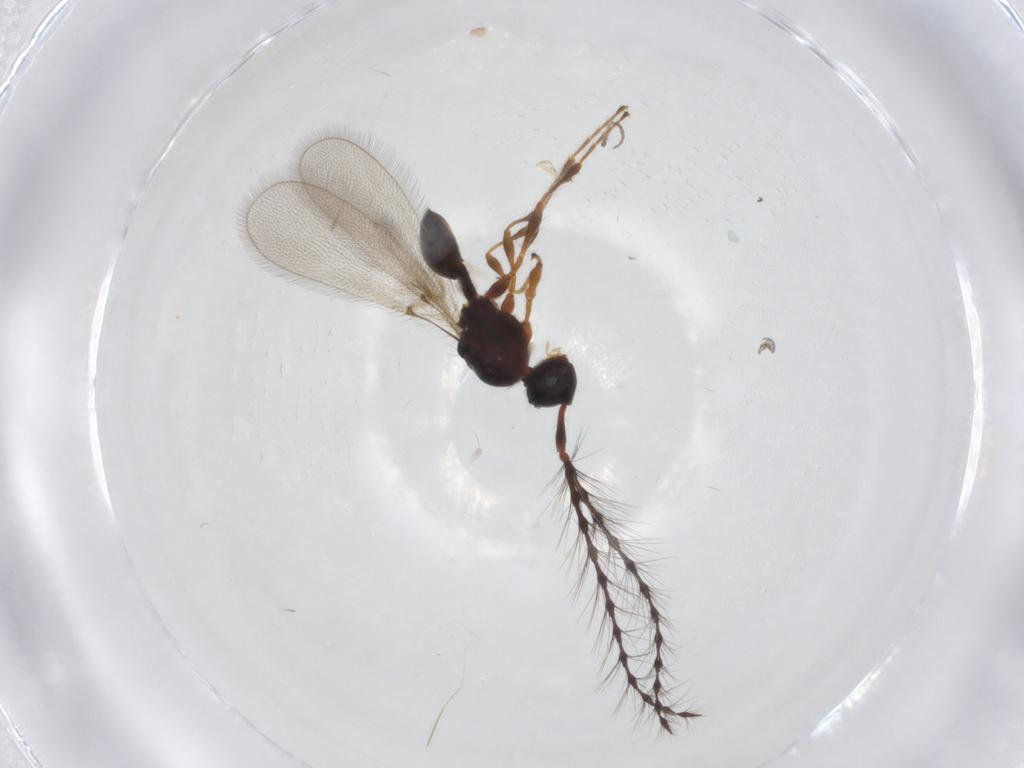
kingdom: Animalia
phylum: Arthropoda
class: Insecta
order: Hymenoptera
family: Diapriidae
